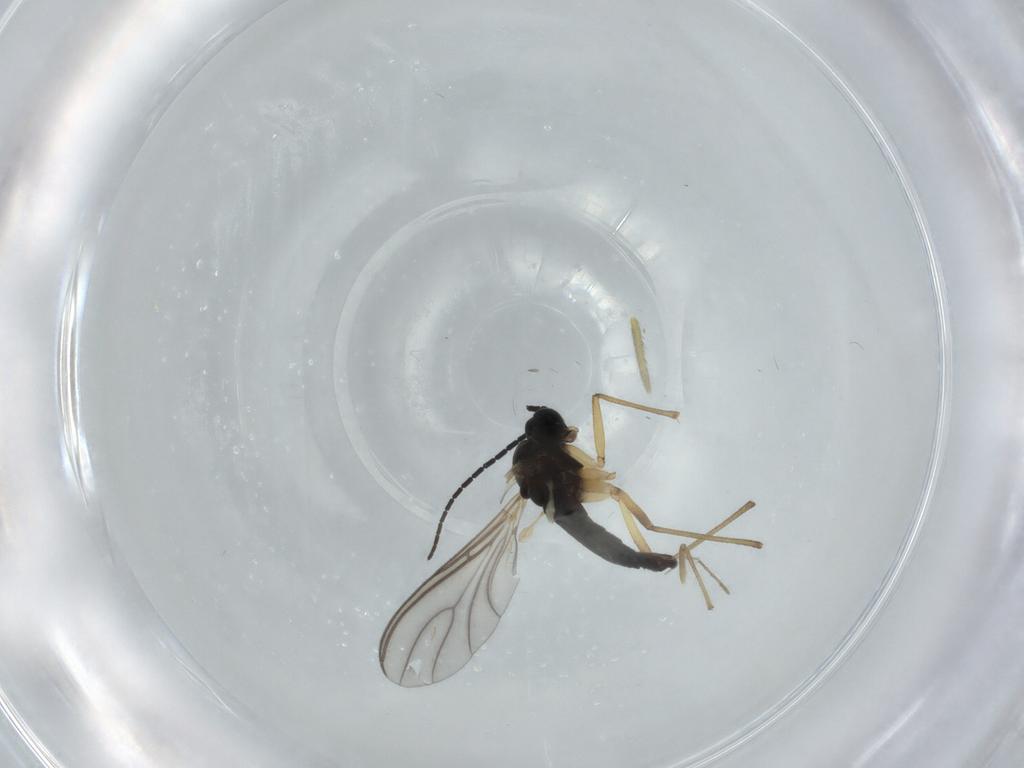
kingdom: Animalia
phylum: Arthropoda
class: Insecta
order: Diptera
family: Sciaridae
